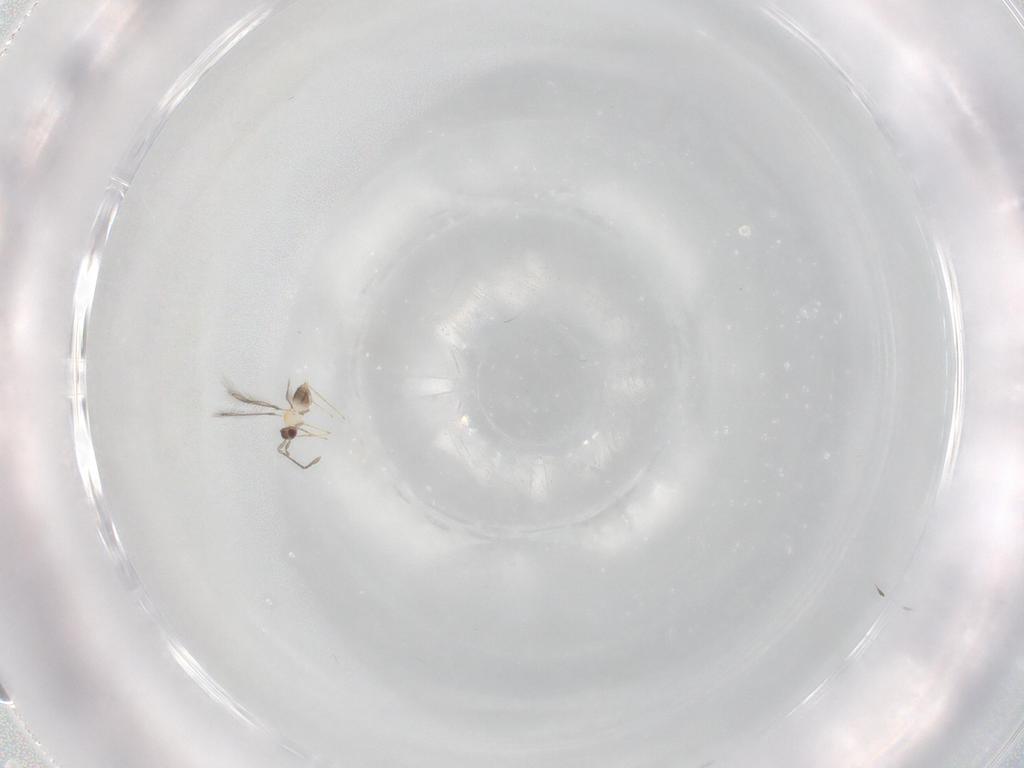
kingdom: Animalia
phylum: Arthropoda
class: Insecta
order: Hymenoptera
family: Mymaridae
